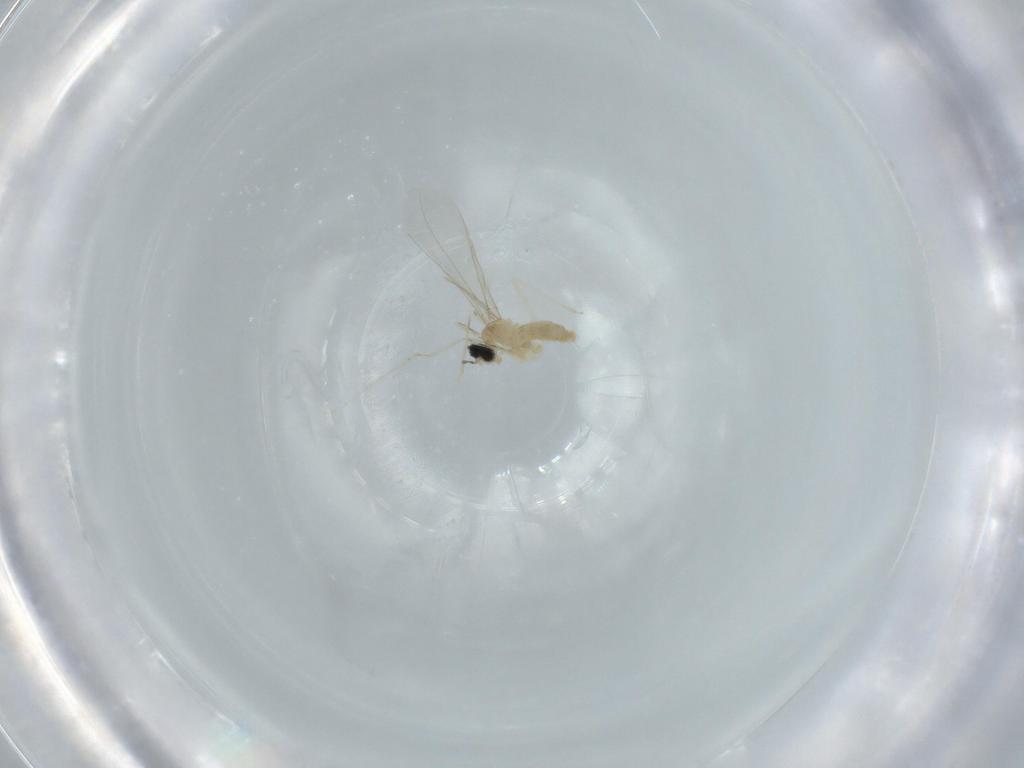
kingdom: Animalia
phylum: Arthropoda
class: Insecta
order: Diptera
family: Cecidomyiidae
